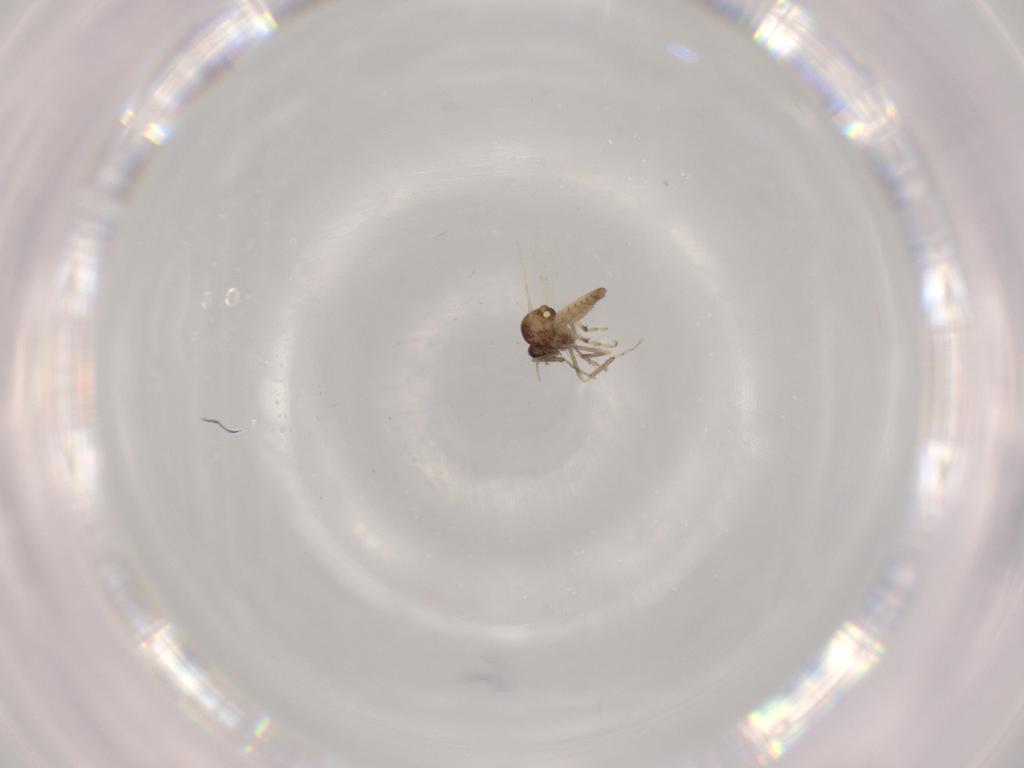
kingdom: Animalia
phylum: Arthropoda
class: Insecta
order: Diptera
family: Ceratopogonidae
